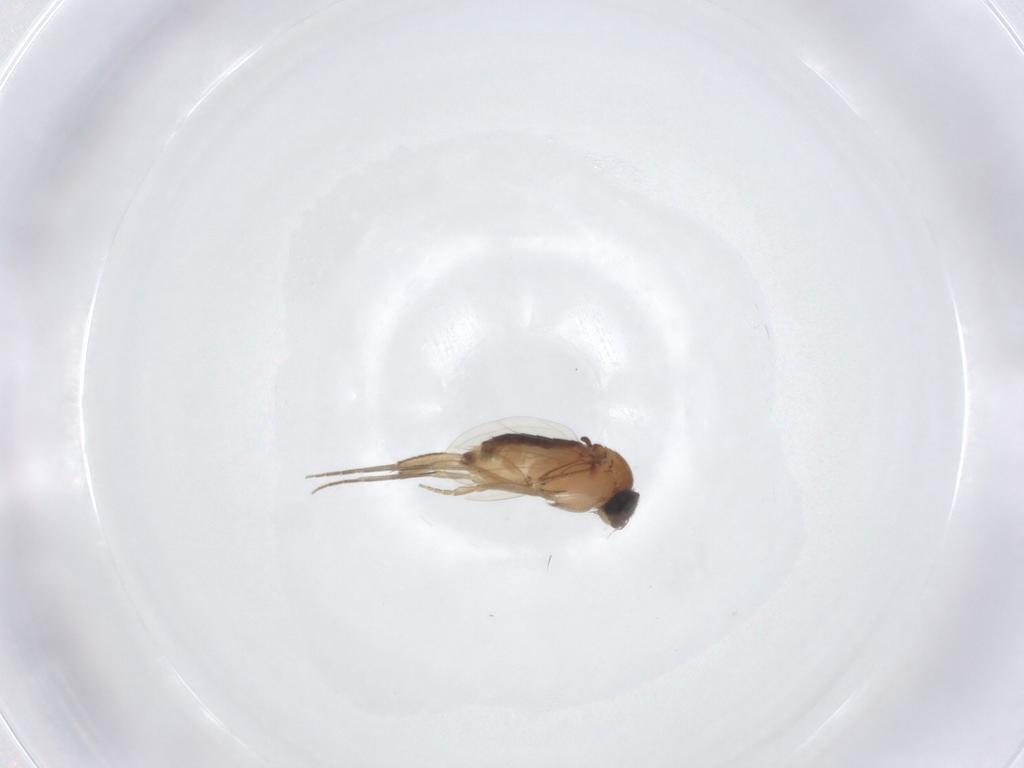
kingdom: Animalia
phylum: Arthropoda
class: Insecta
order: Diptera
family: Phoridae
